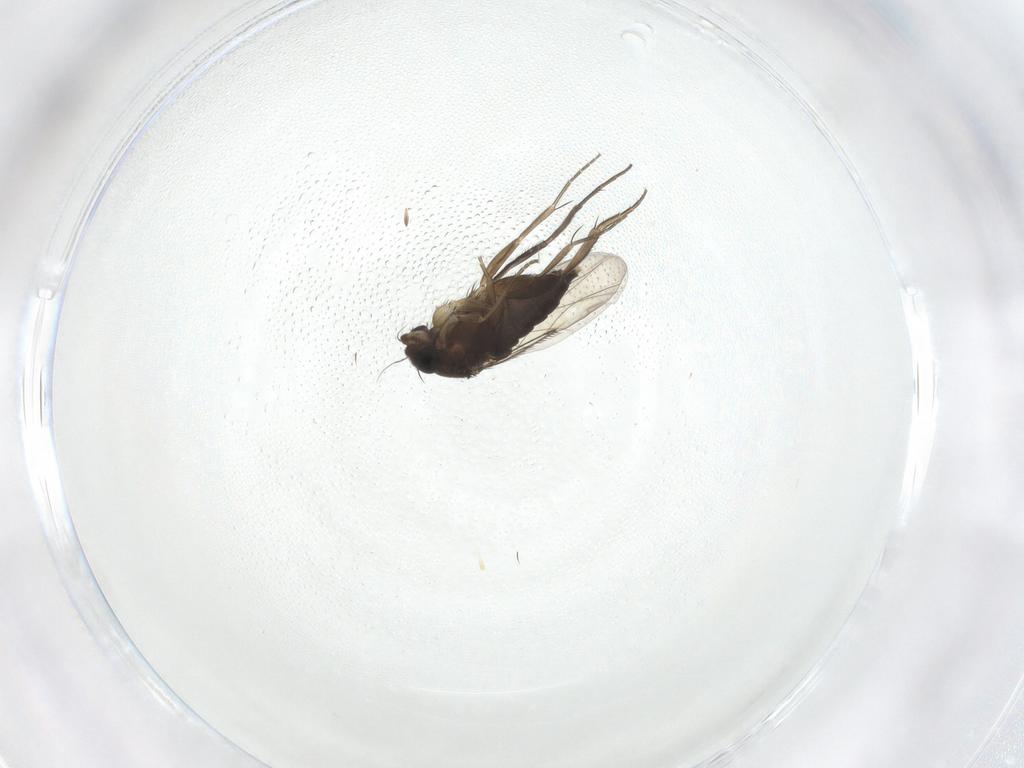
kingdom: Animalia
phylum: Arthropoda
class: Insecta
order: Diptera
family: Phoridae
